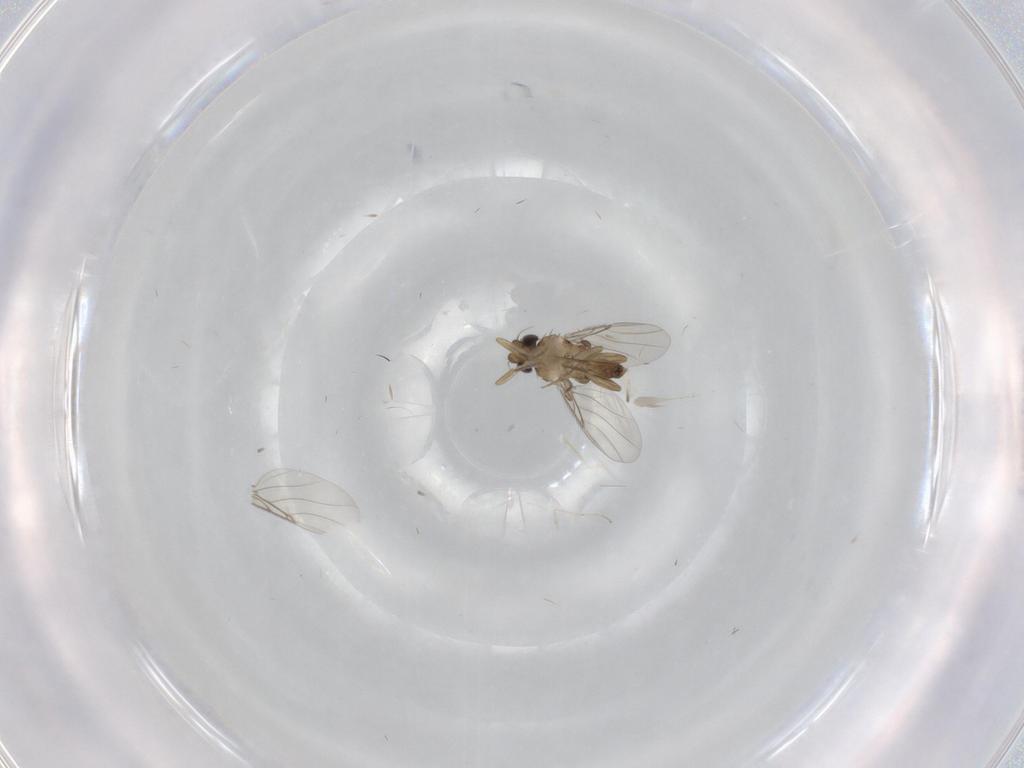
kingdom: Animalia
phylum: Arthropoda
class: Insecta
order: Diptera
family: Phoridae
